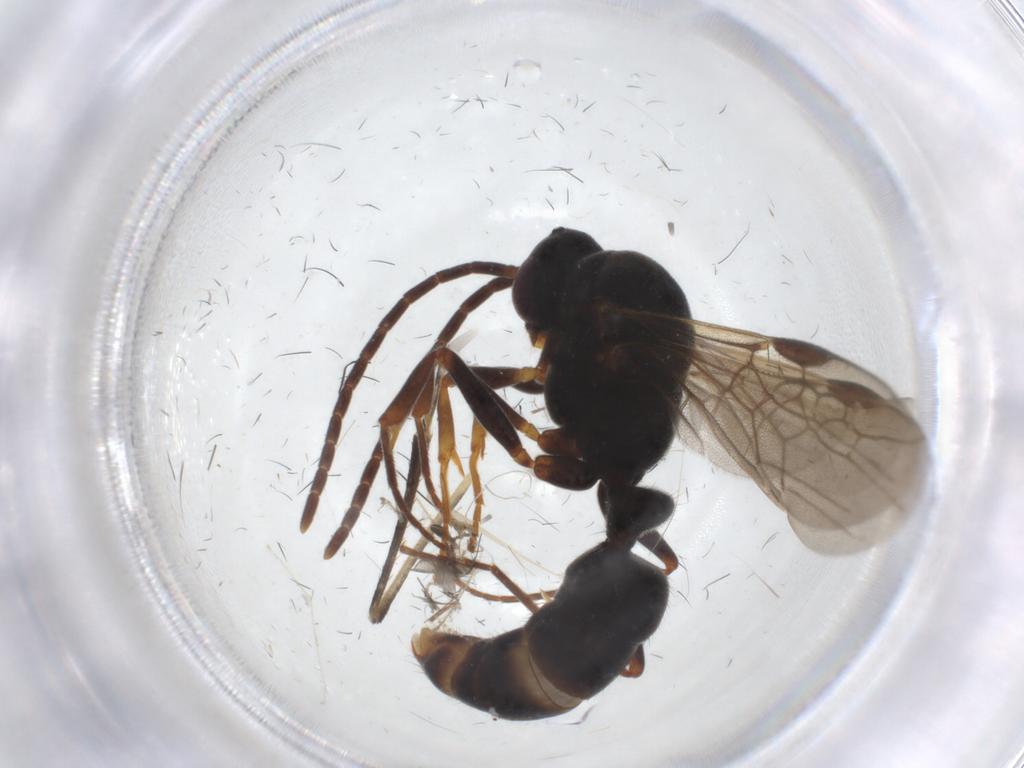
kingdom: Animalia
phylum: Arthropoda
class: Insecta
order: Hymenoptera
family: Formicidae
